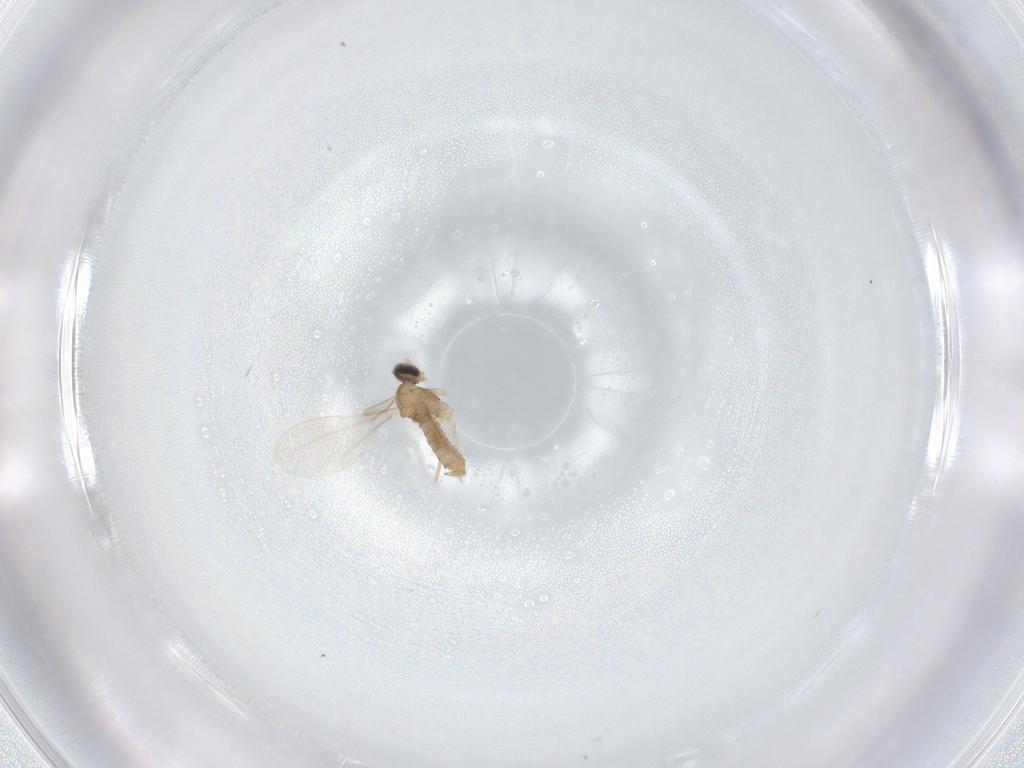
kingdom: Animalia
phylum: Arthropoda
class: Insecta
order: Diptera
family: Cecidomyiidae
